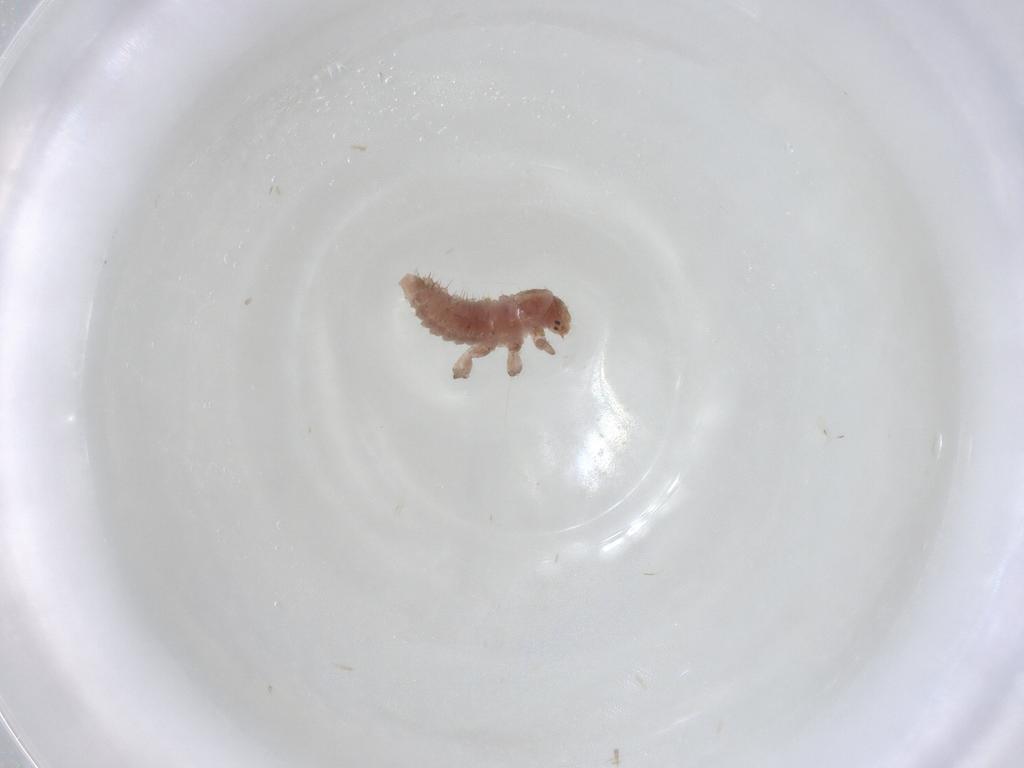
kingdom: Animalia
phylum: Arthropoda
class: Insecta
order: Coleoptera
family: Coccinellidae
